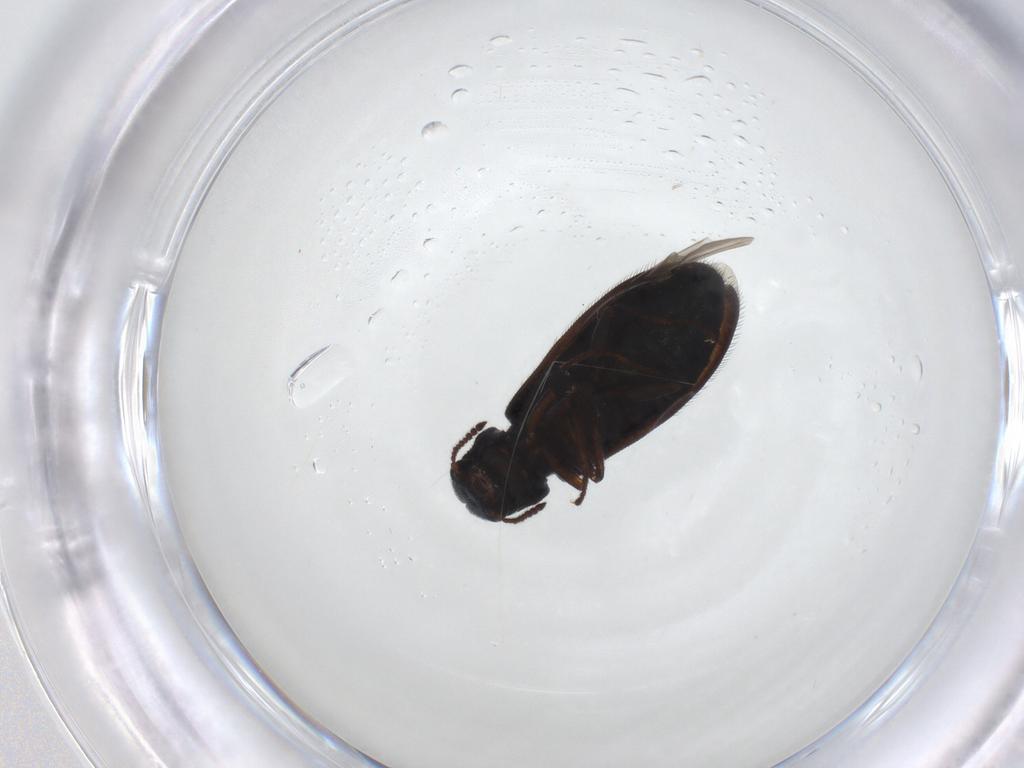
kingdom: Animalia
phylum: Arthropoda
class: Insecta
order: Coleoptera
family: Melyridae
